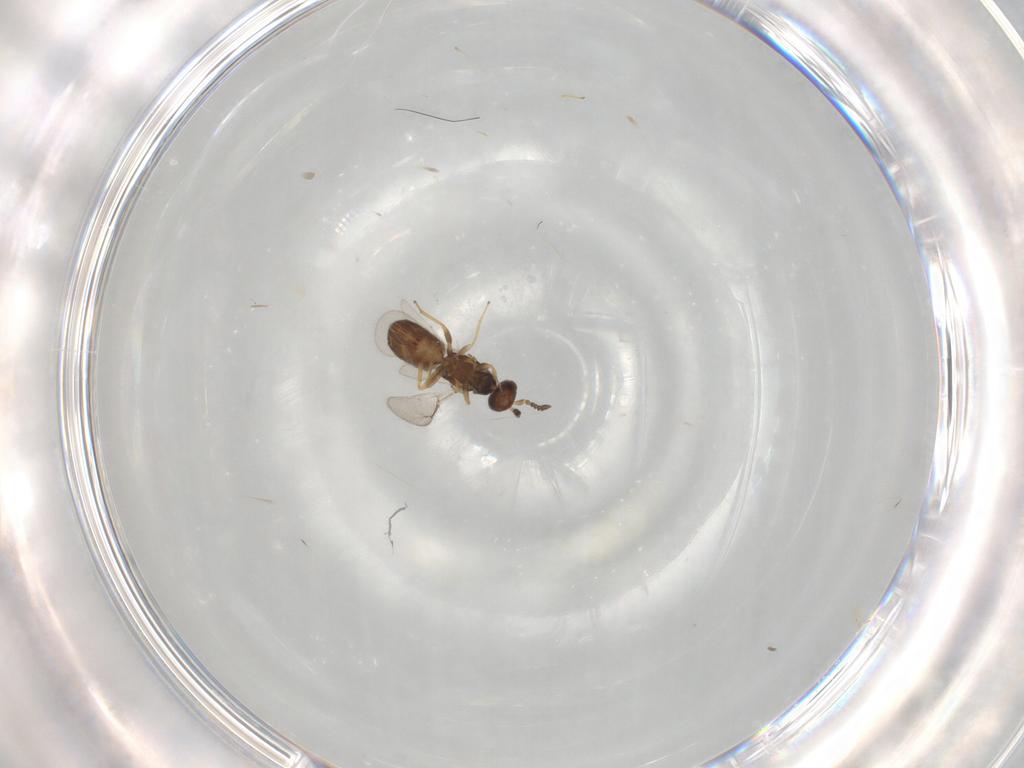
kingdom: Animalia
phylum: Arthropoda
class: Insecta
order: Hymenoptera
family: Eulophidae
